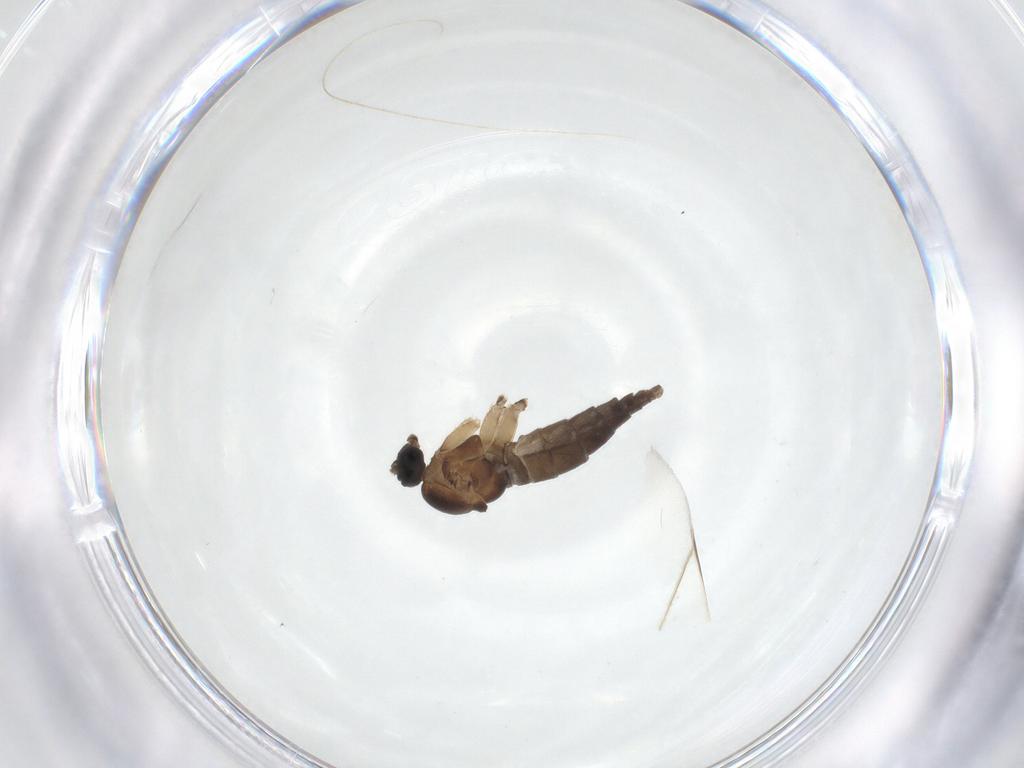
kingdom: Animalia
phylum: Arthropoda
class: Insecta
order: Diptera
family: Sciaridae
